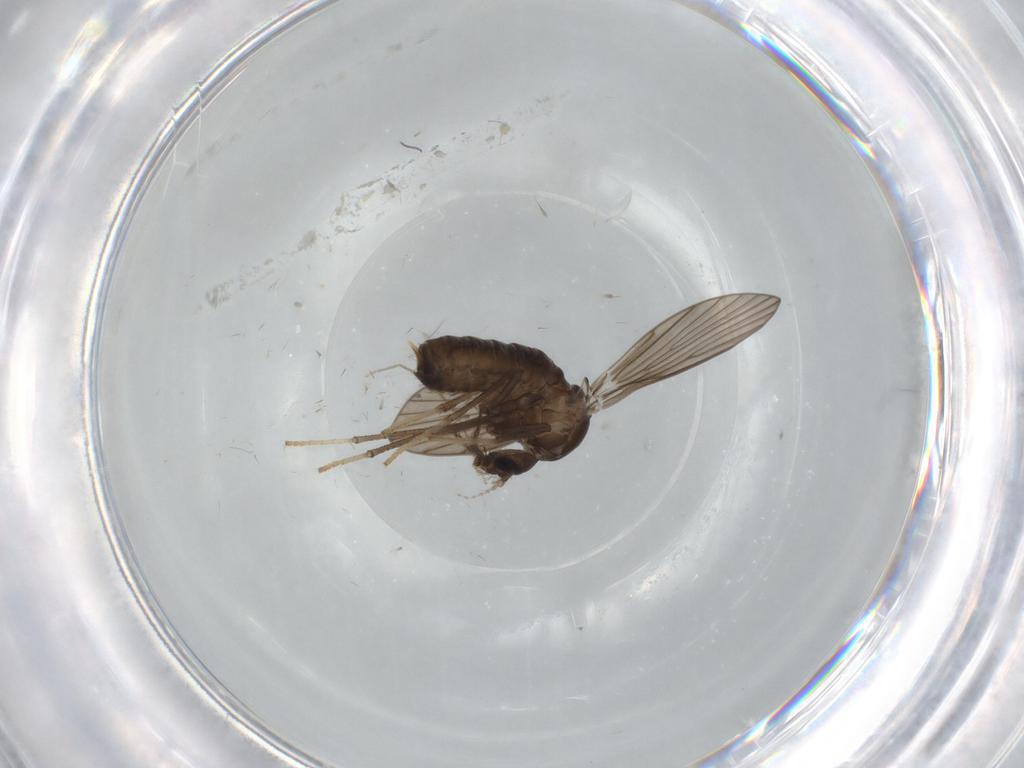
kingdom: Animalia
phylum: Arthropoda
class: Insecta
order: Diptera
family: Psychodidae
